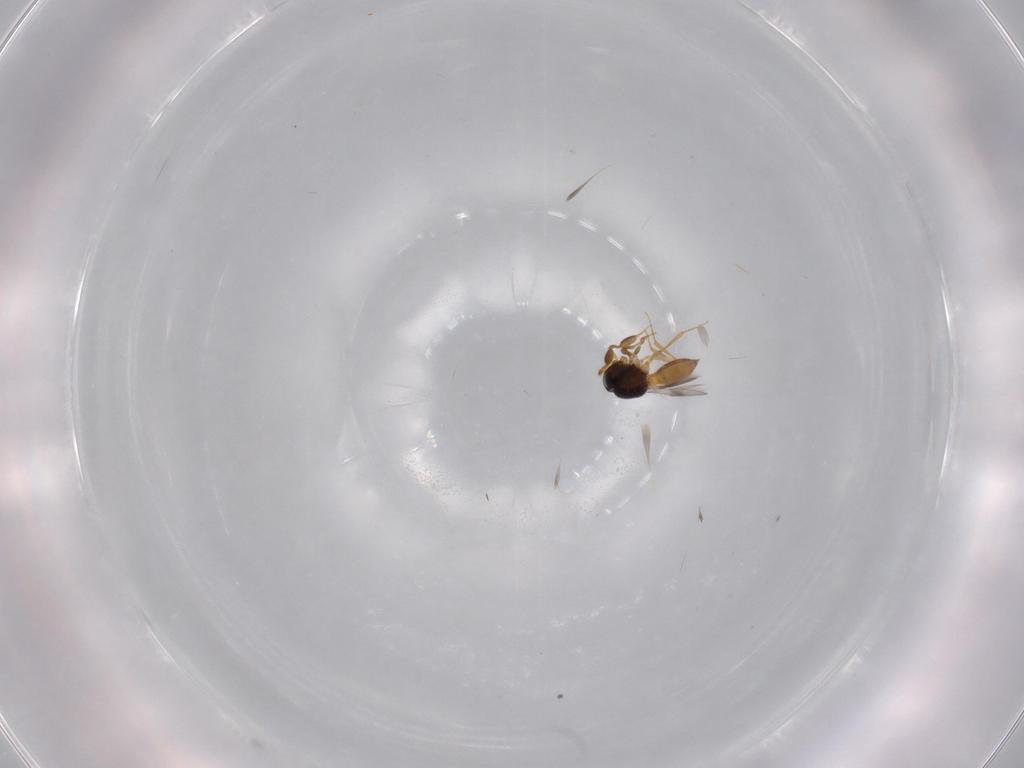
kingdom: Animalia
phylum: Arthropoda
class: Insecta
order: Hymenoptera
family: Scelionidae
